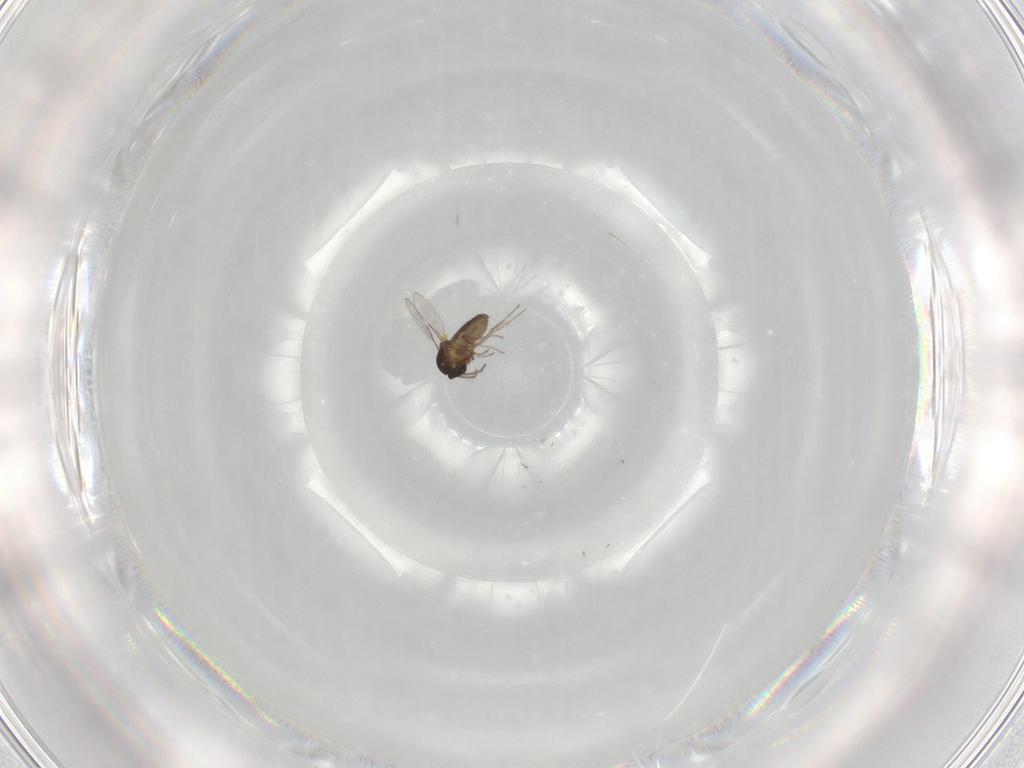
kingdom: Animalia
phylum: Arthropoda
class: Insecta
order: Diptera
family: Ceratopogonidae
